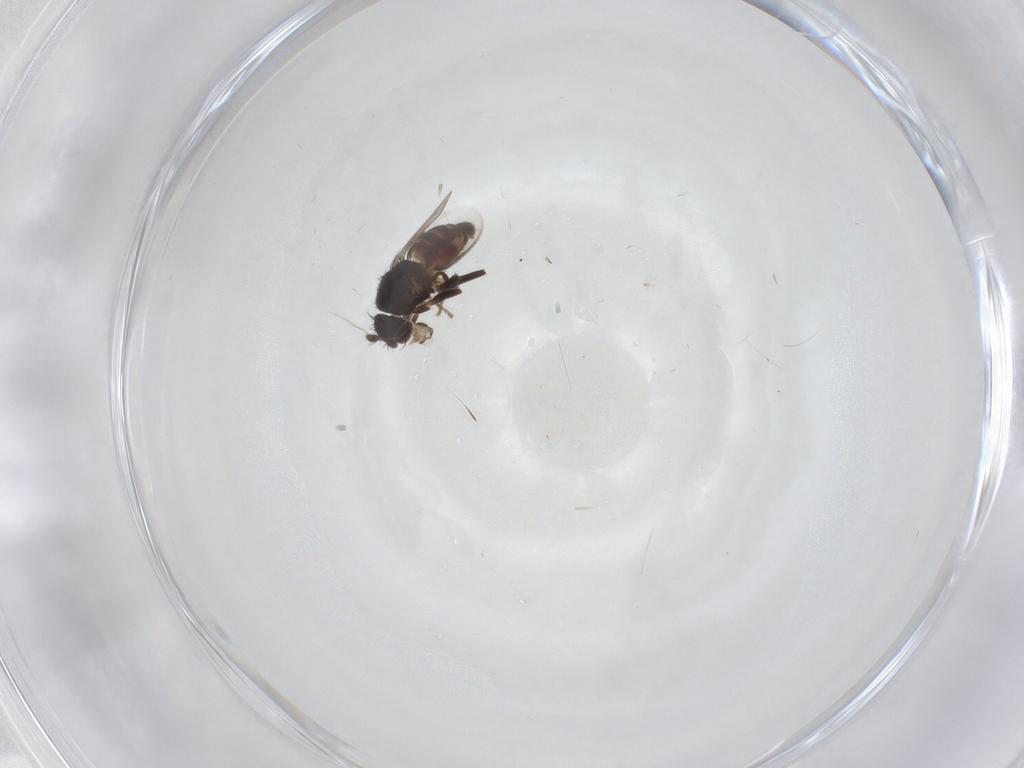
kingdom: Animalia
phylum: Arthropoda
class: Insecta
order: Diptera
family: Sphaeroceridae
